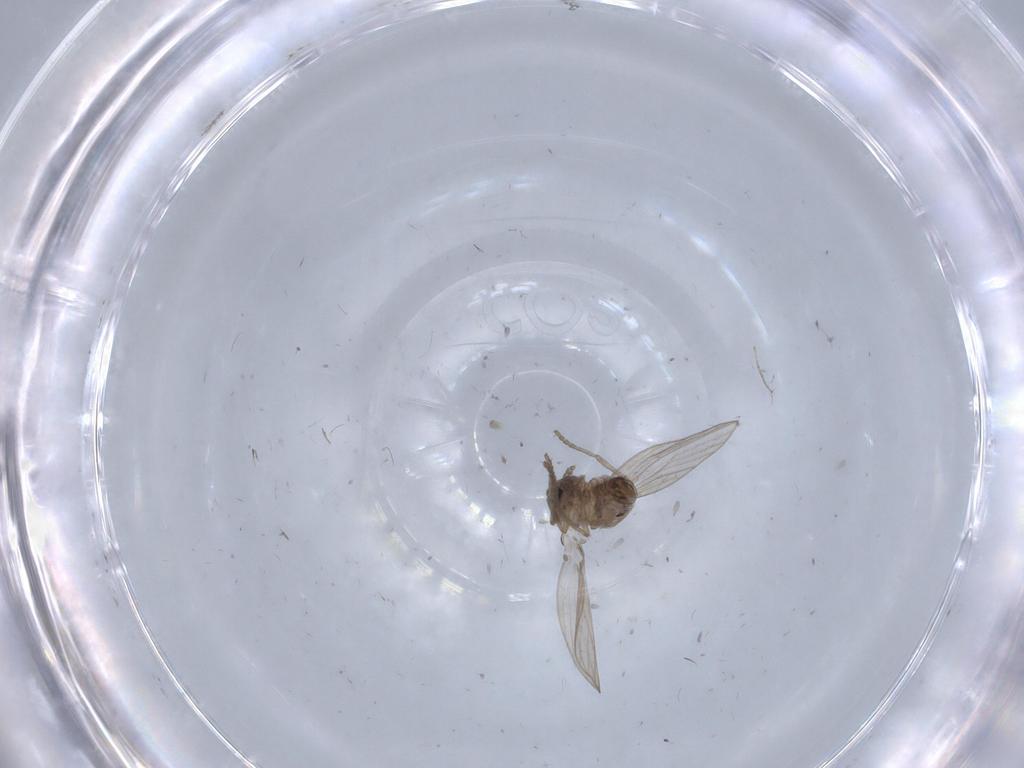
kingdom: Animalia
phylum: Arthropoda
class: Insecta
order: Diptera
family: Psychodidae
